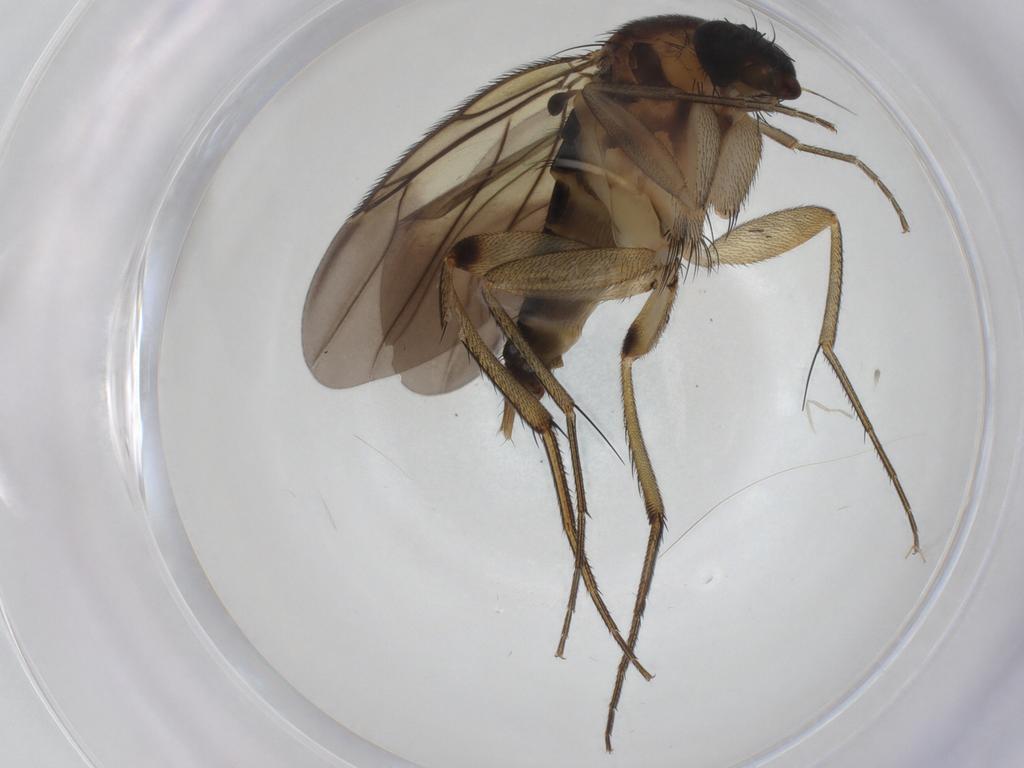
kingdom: Animalia
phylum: Arthropoda
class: Insecta
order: Diptera
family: Phoridae
